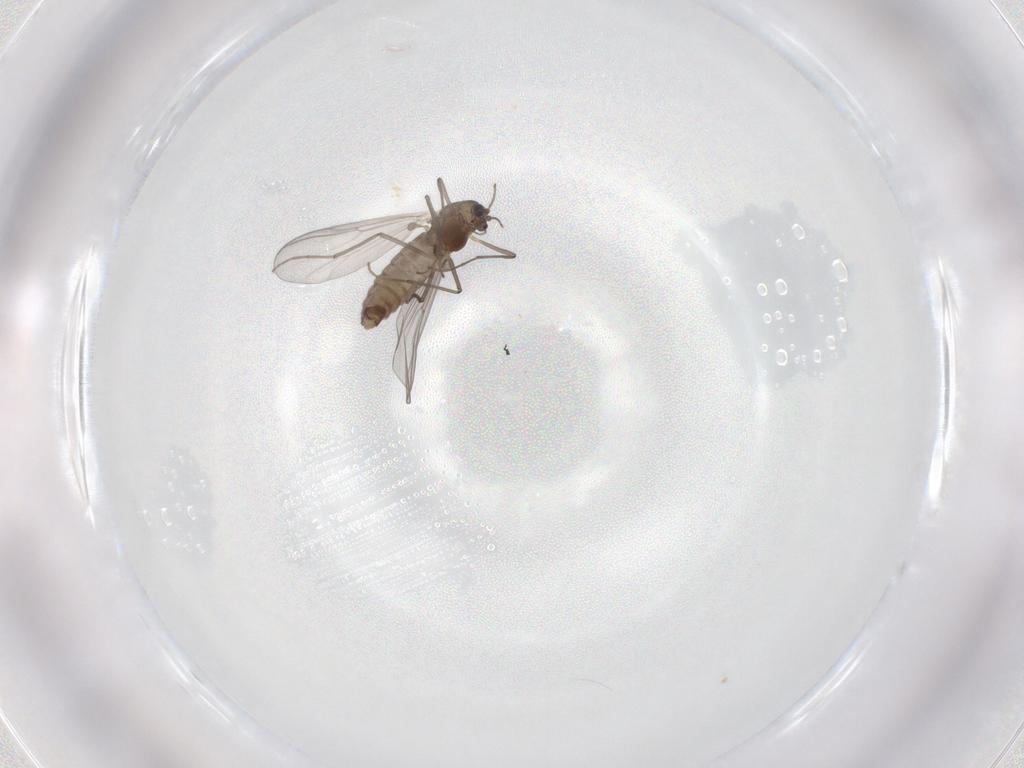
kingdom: Animalia
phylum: Arthropoda
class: Insecta
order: Diptera
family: Chironomidae
